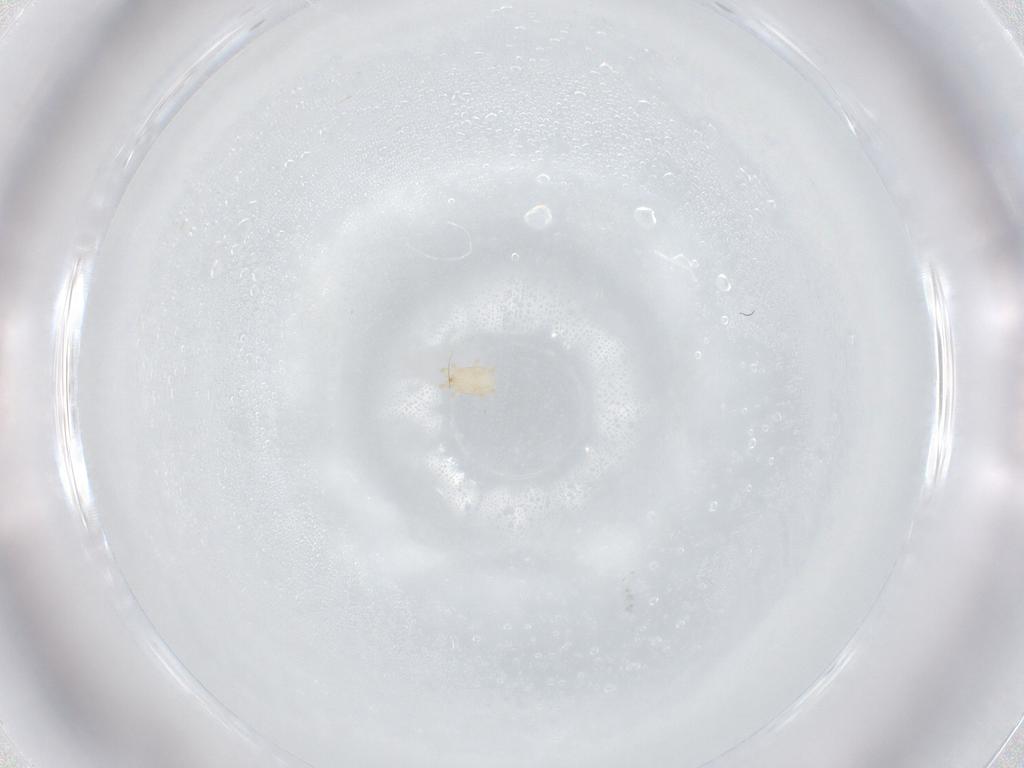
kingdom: Animalia
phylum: Arthropoda
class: Arachnida
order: Mesostigmata
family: Melicharidae
